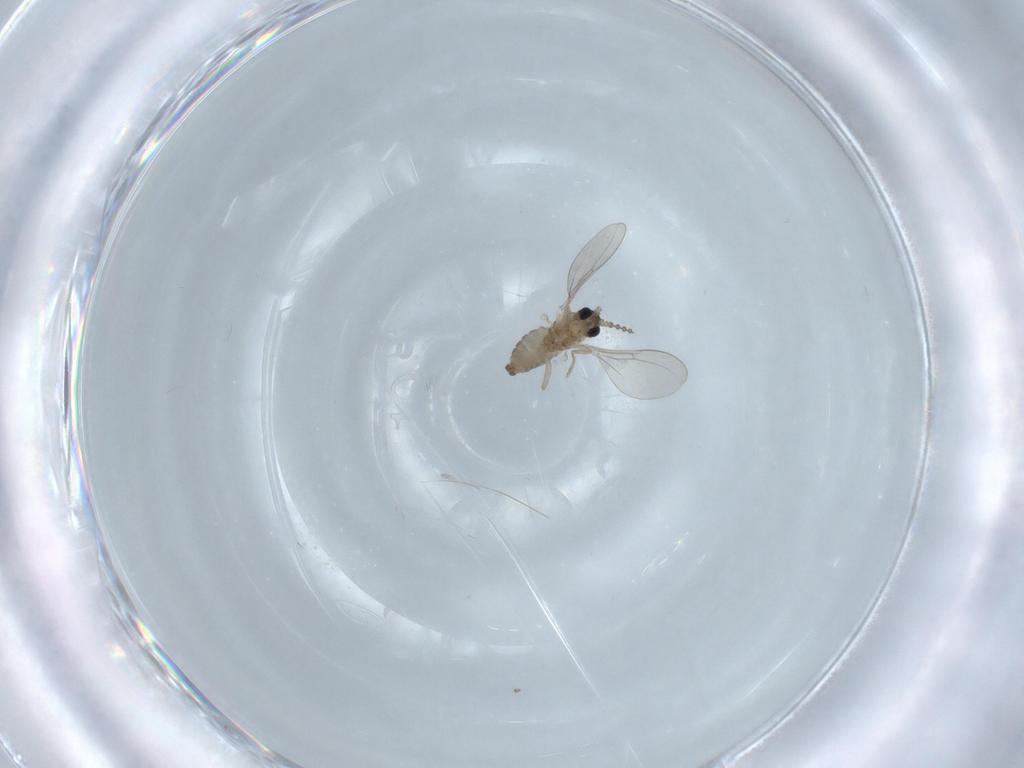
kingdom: Animalia
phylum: Arthropoda
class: Insecta
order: Diptera
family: Cecidomyiidae
